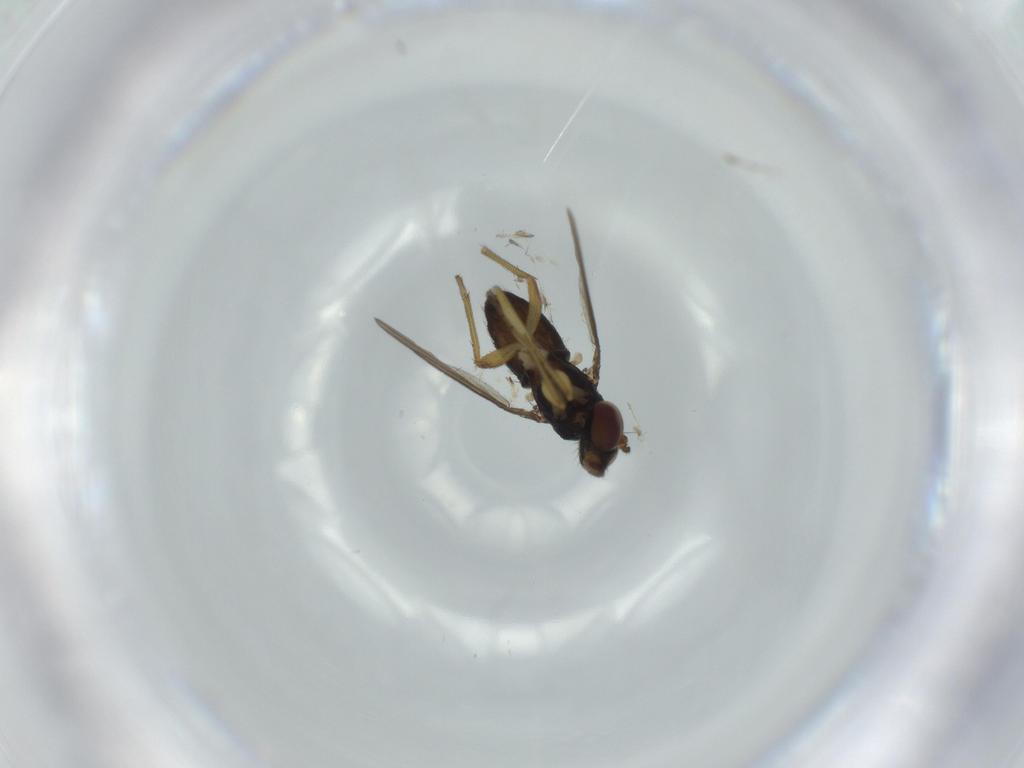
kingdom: Animalia
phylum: Arthropoda
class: Insecta
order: Diptera
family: Dolichopodidae
